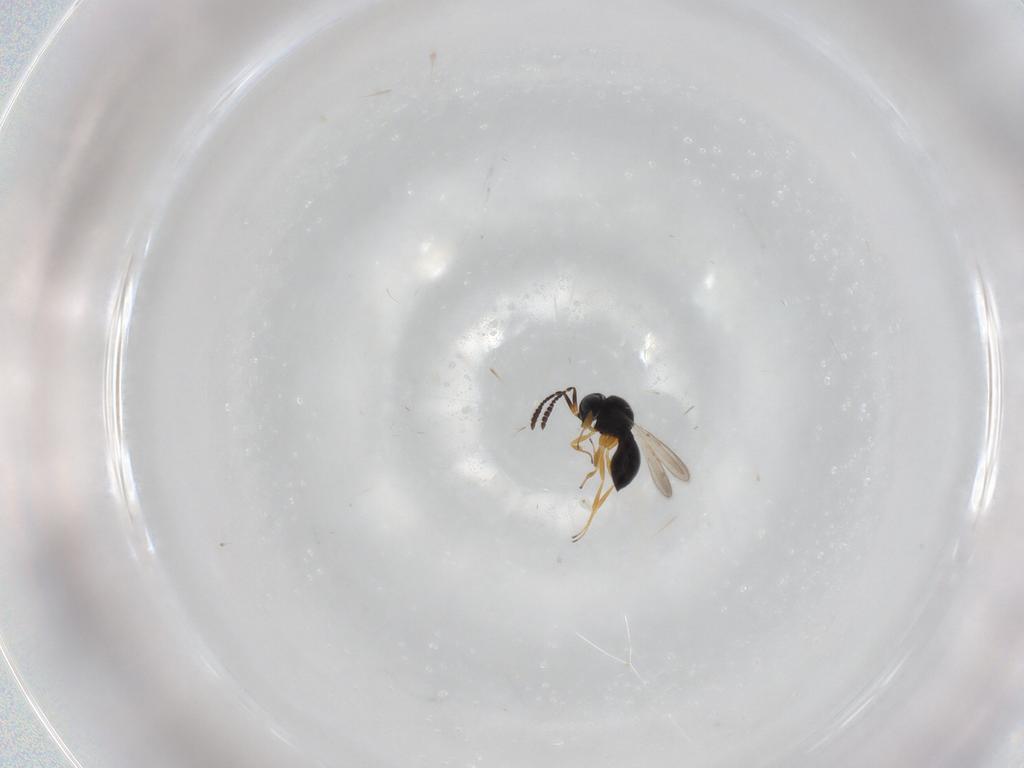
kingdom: Animalia
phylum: Arthropoda
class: Insecta
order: Hymenoptera
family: Scelionidae
